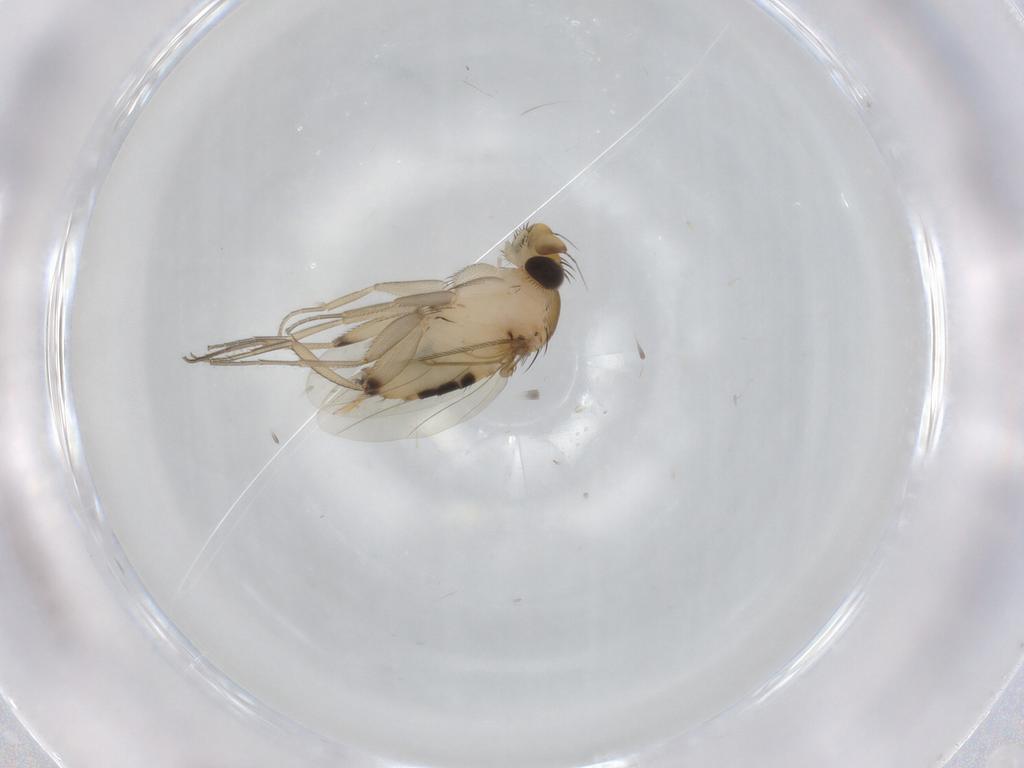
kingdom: Animalia
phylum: Arthropoda
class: Insecta
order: Diptera
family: Phoridae
